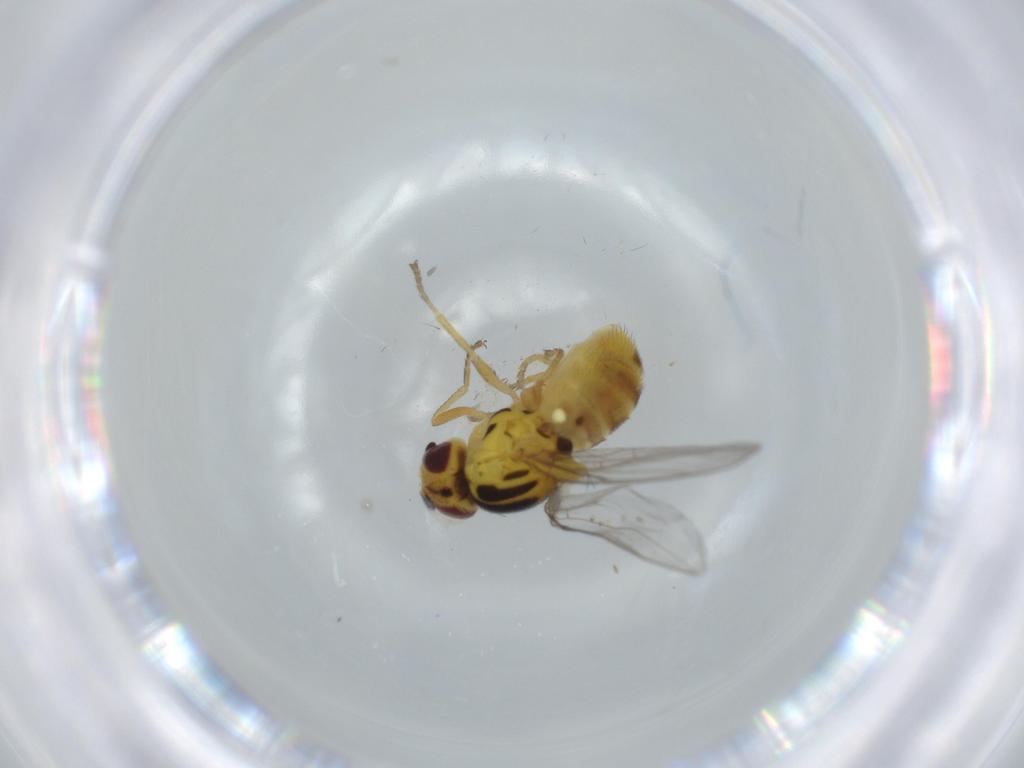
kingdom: Animalia
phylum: Arthropoda
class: Insecta
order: Diptera
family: Chloropidae
